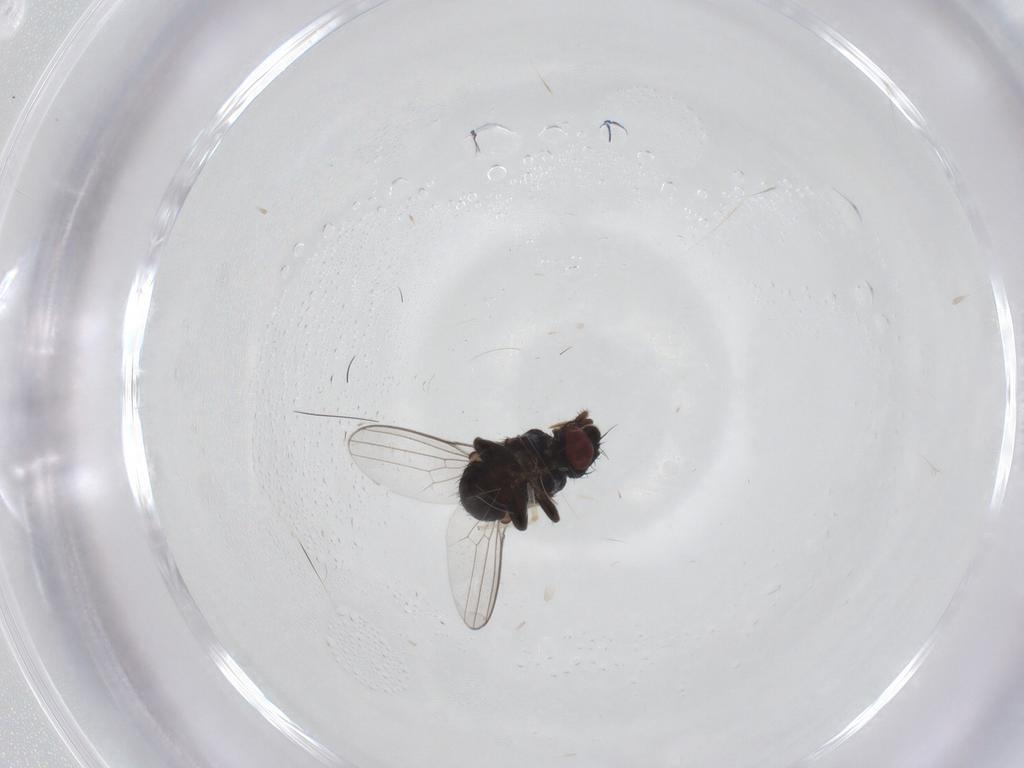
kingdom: Animalia
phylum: Arthropoda
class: Insecta
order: Diptera
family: Milichiidae
